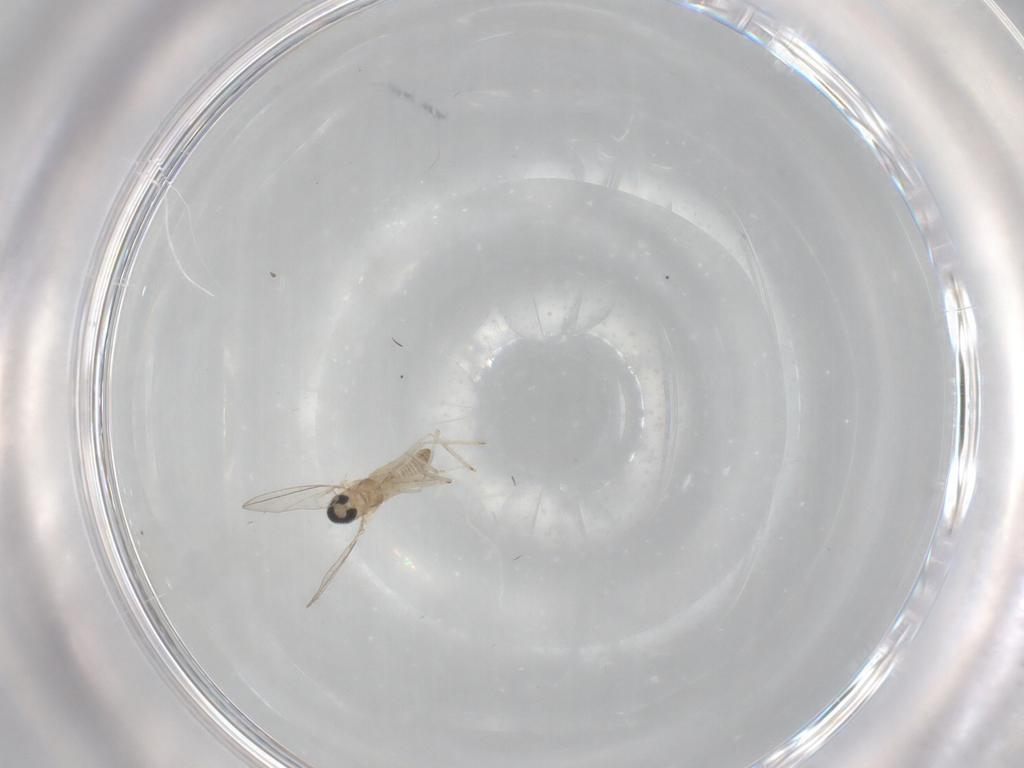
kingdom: Animalia
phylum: Arthropoda
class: Insecta
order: Diptera
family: Cecidomyiidae
